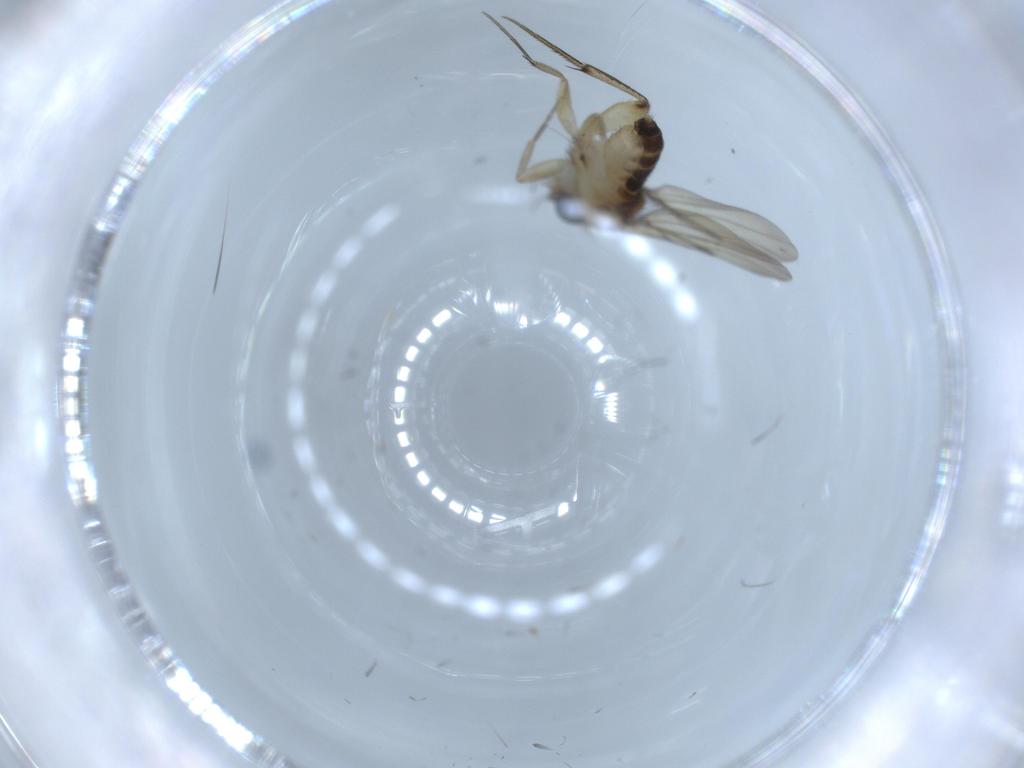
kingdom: Animalia
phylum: Arthropoda
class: Insecta
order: Diptera
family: Phoridae
